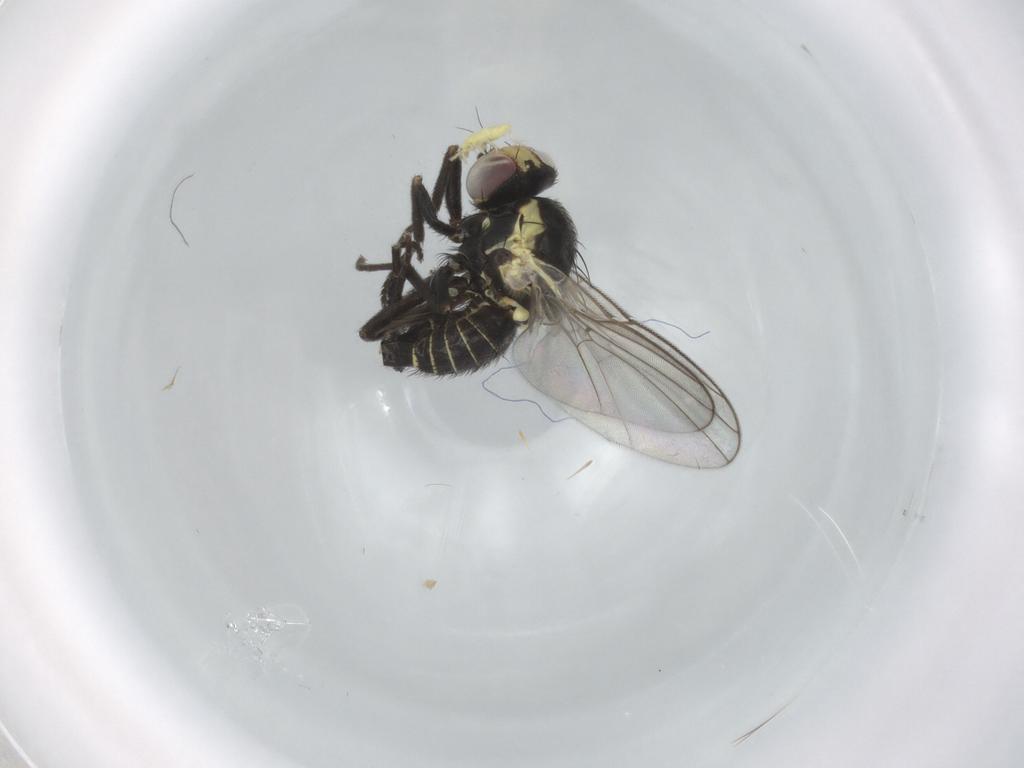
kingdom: Animalia
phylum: Arthropoda
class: Insecta
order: Diptera
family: Agromyzidae
